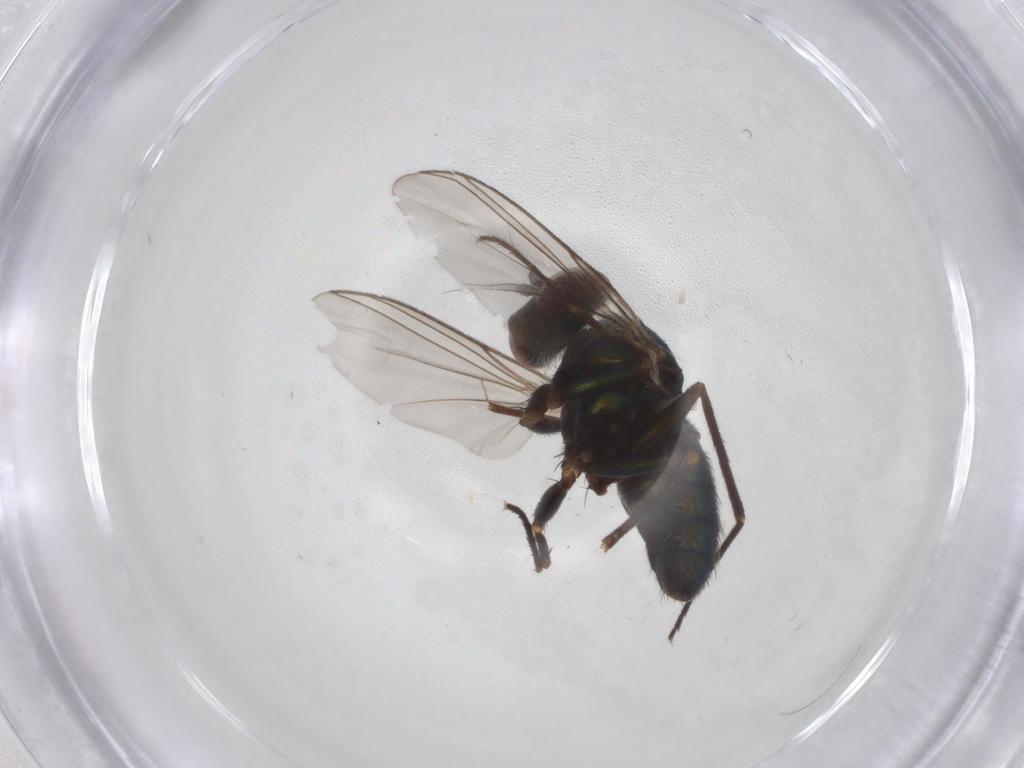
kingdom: Animalia
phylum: Arthropoda
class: Insecta
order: Diptera
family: Dolichopodidae
